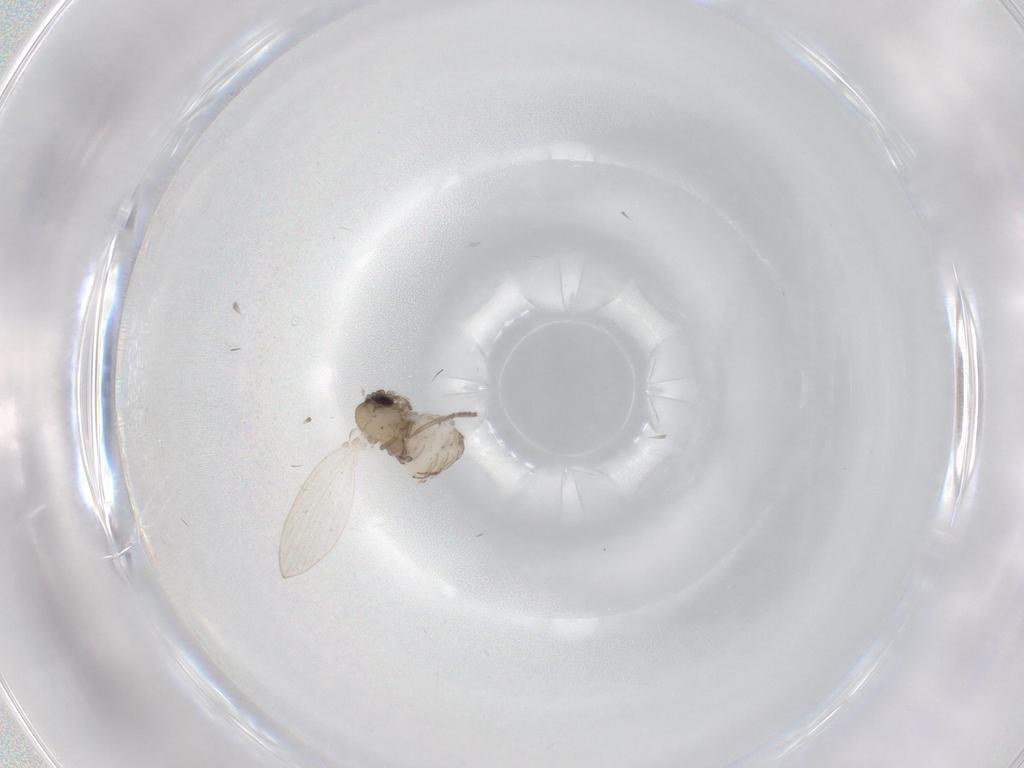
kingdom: Animalia
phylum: Arthropoda
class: Insecta
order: Diptera
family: Psychodidae
